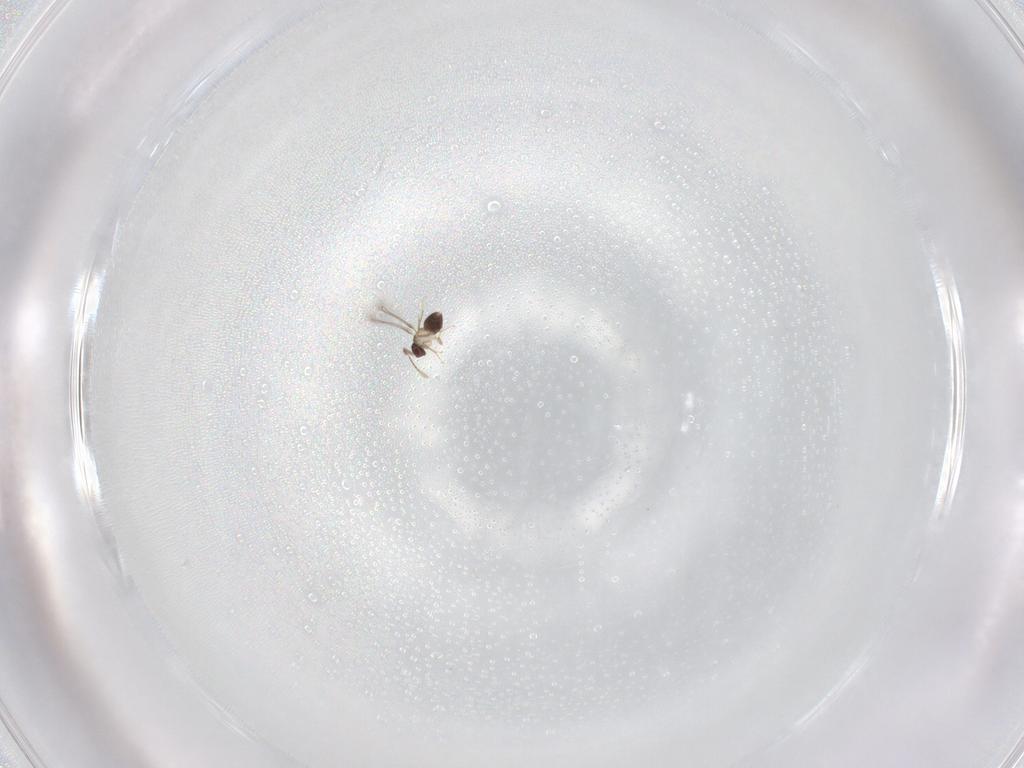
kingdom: Animalia
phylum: Arthropoda
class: Insecta
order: Hymenoptera
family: Mymaridae
